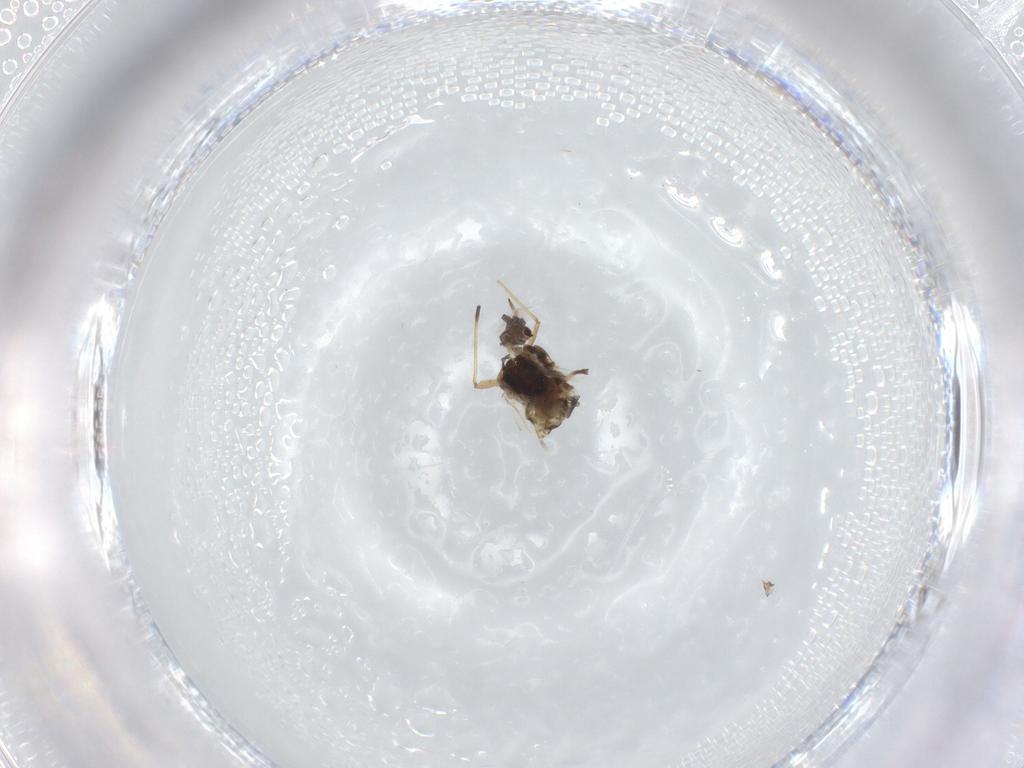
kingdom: Animalia
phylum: Arthropoda
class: Insecta
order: Hemiptera
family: Aphididae
